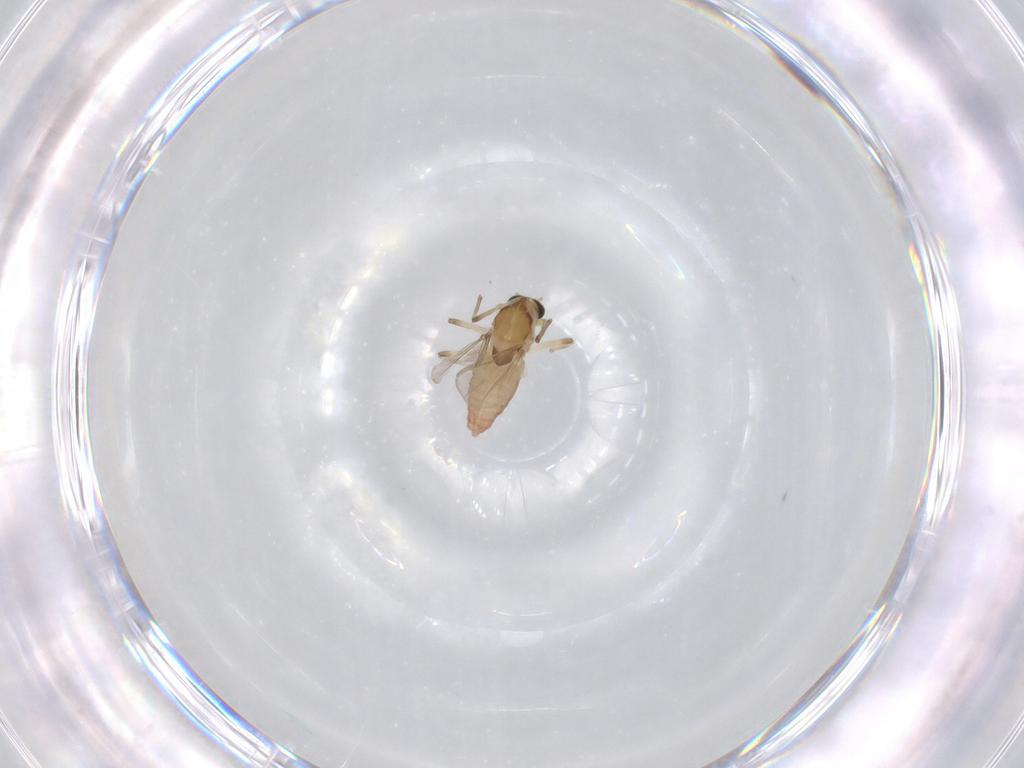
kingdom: Animalia
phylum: Arthropoda
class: Insecta
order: Diptera
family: Chironomidae
